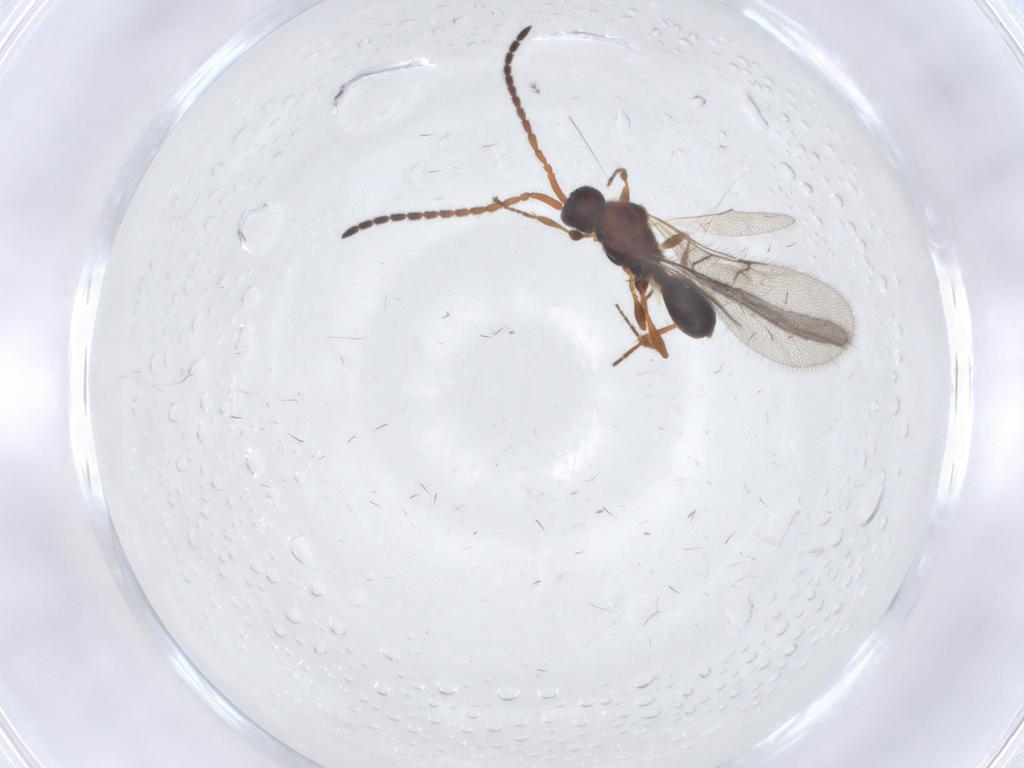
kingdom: Animalia
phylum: Arthropoda
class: Insecta
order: Hymenoptera
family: Diapriidae
